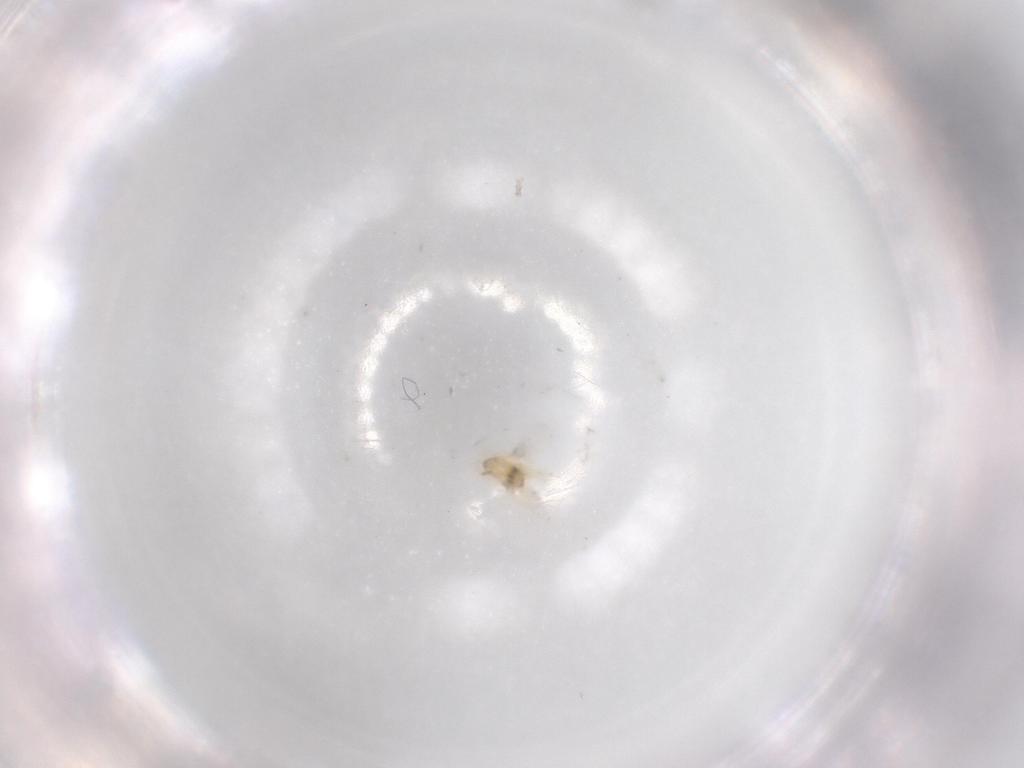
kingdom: Animalia
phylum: Arthropoda
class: Insecta
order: Hymenoptera
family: Trichogrammatidae
